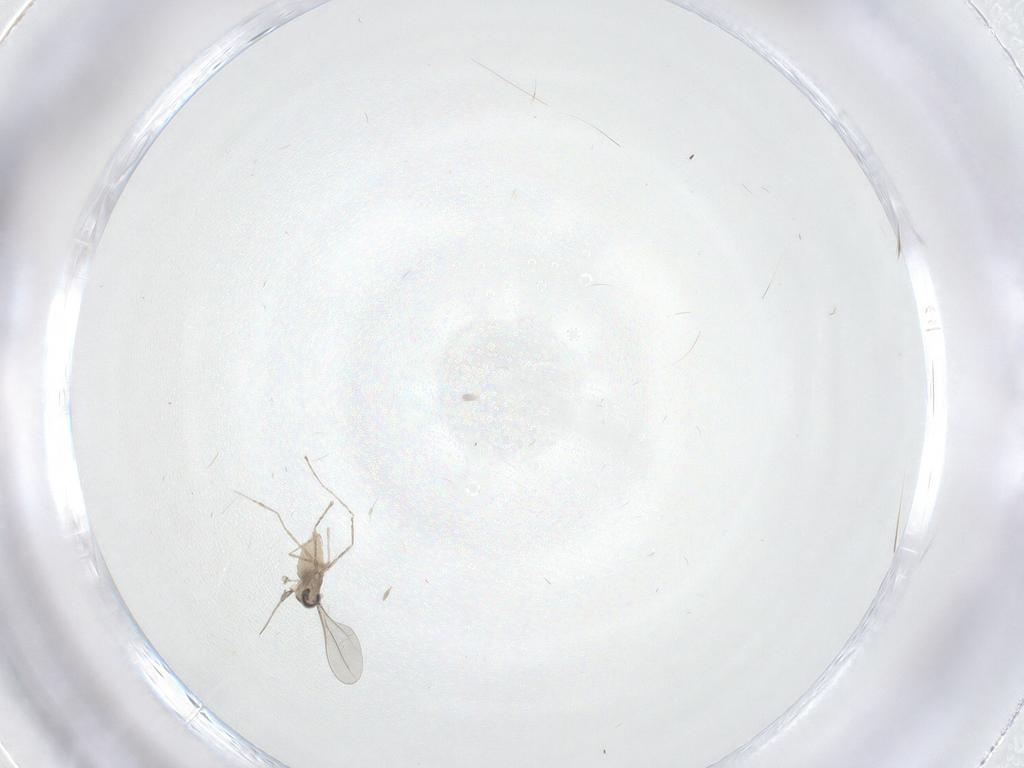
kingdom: Animalia
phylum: Arthropoda
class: Insecta
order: Diptera
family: Cecidomyiidae
